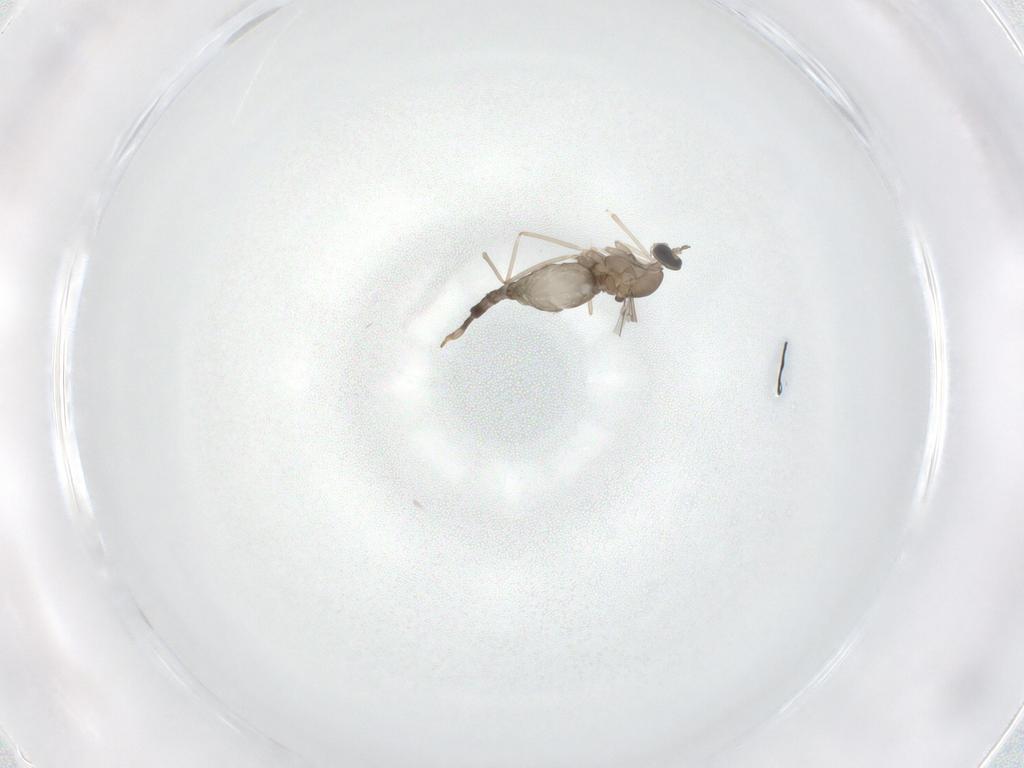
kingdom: Animalia
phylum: Arthropoda
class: Insecta
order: Diptera
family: Cecidomyiidae
